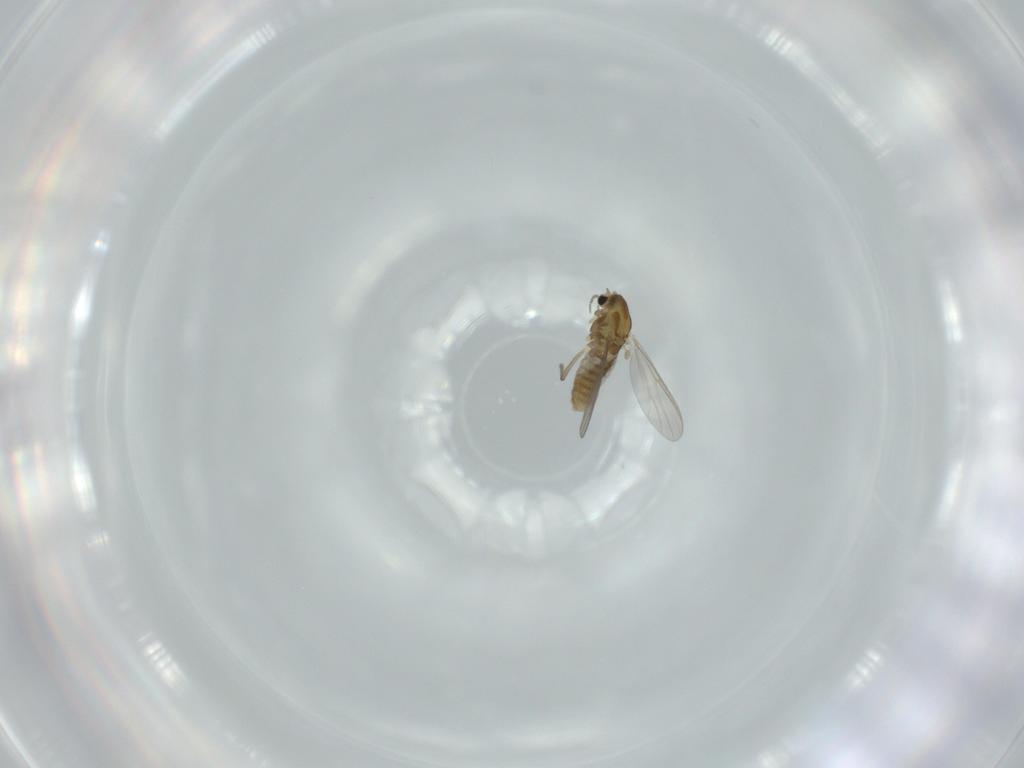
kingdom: Animalia
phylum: Arthropoda
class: Insecta
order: Diptera
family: Chironomidae
